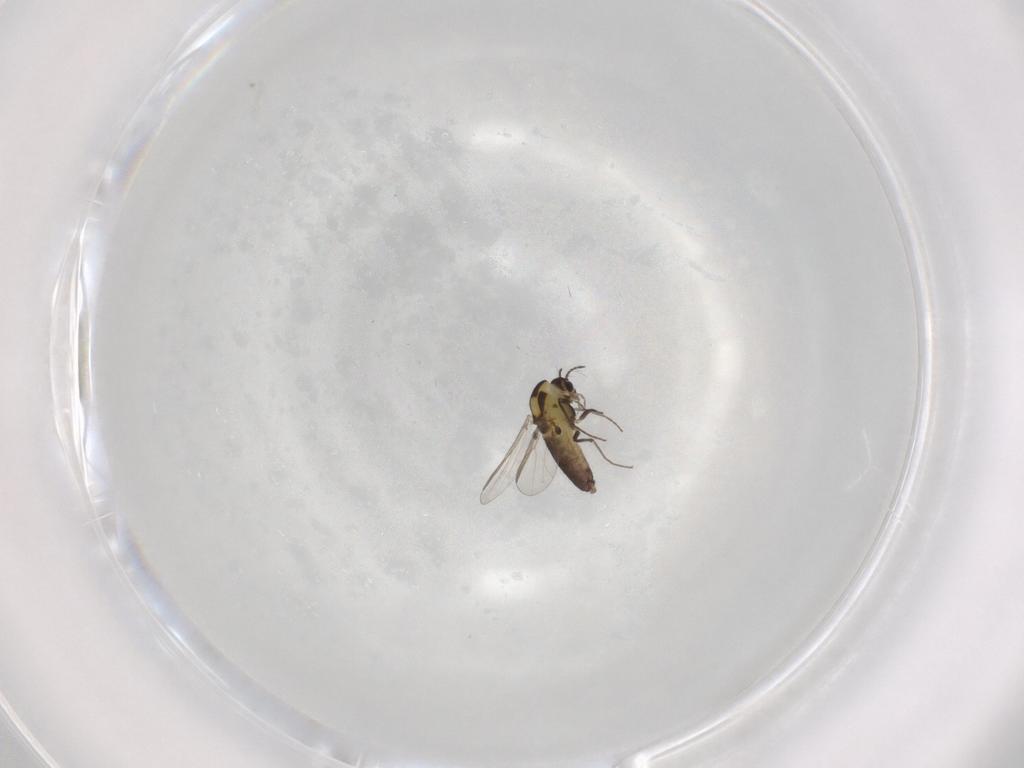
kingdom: Animalia
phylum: Arthropoda
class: Insecta
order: Diptera
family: Chironomidae
